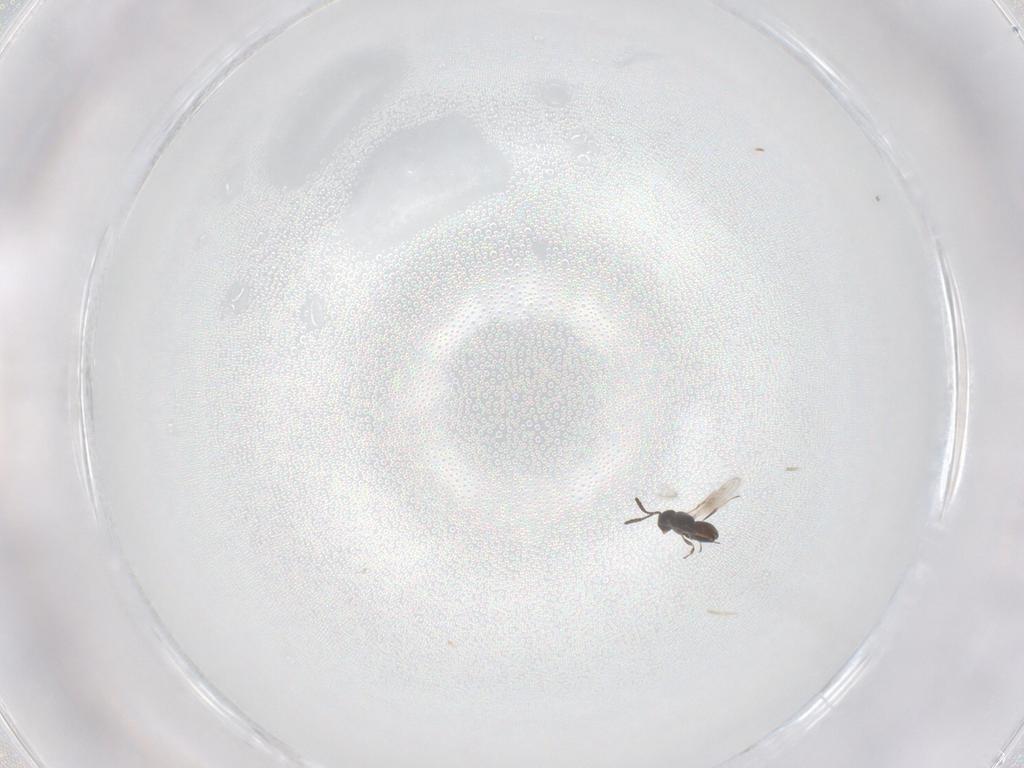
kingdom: Animalia
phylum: Arthropoda
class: Insecta
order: Hymenoptera
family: Scelionidae
